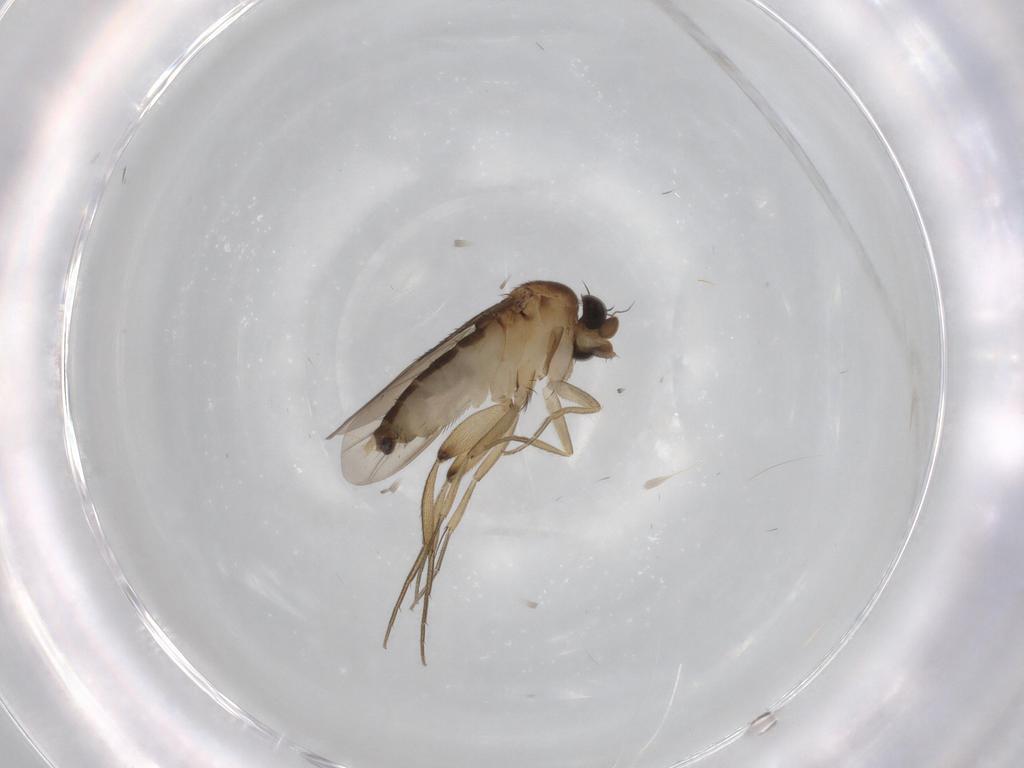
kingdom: Animalia
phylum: Arthropoda
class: Insecta
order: Diptera
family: Phoridae
